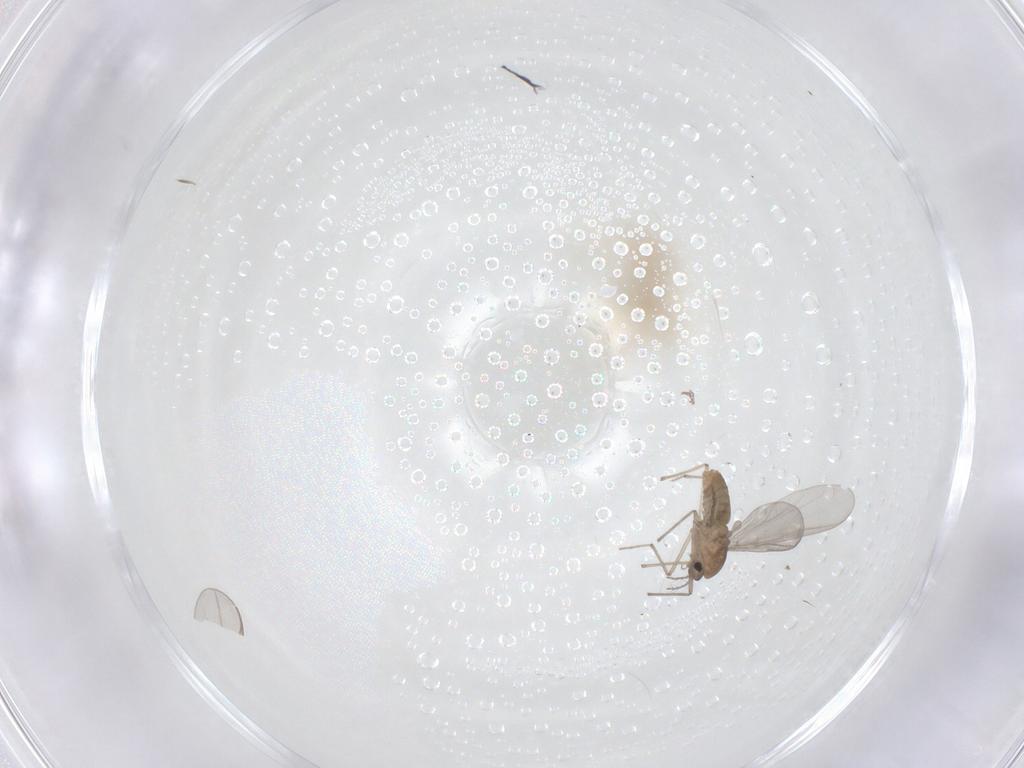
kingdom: Animalia
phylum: Arthropoda
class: Insecta
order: Diptera
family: Chironomidae
